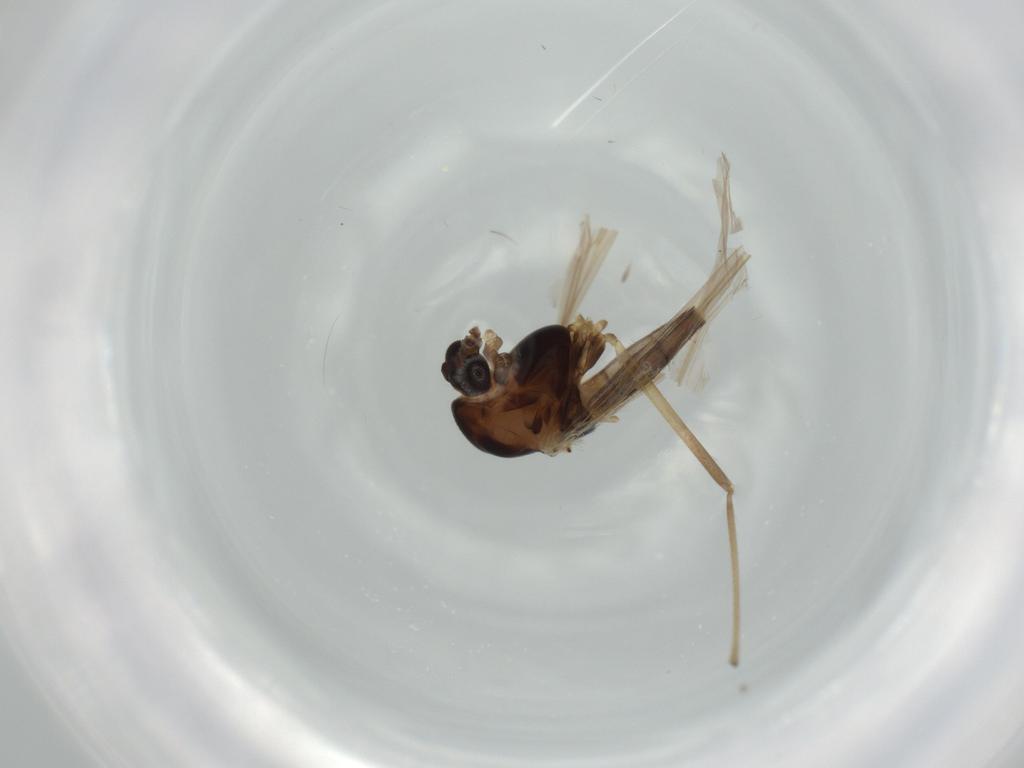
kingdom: Animalia
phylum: Arthropoda
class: Insecta
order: Diptera
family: Chironomidae
